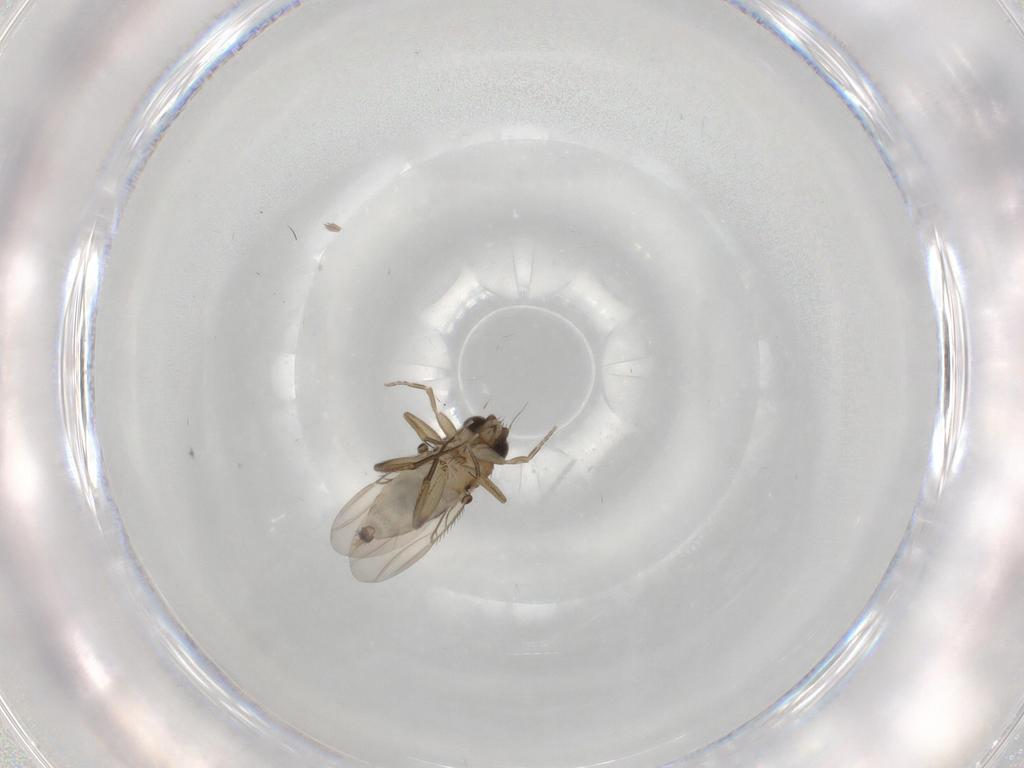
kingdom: Animalia
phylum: Arthropoda
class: Insecta
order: Diptera
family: Phoridae
